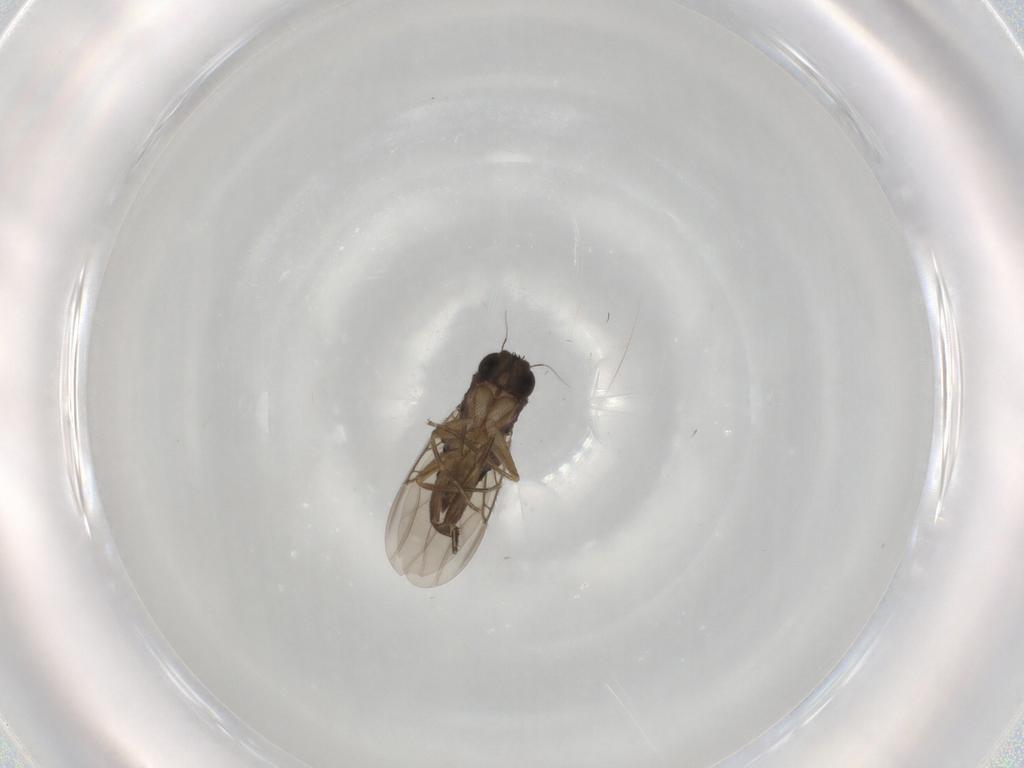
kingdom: Animalia
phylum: Arthropoda
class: Insecta
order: Diptera
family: Phoridae
